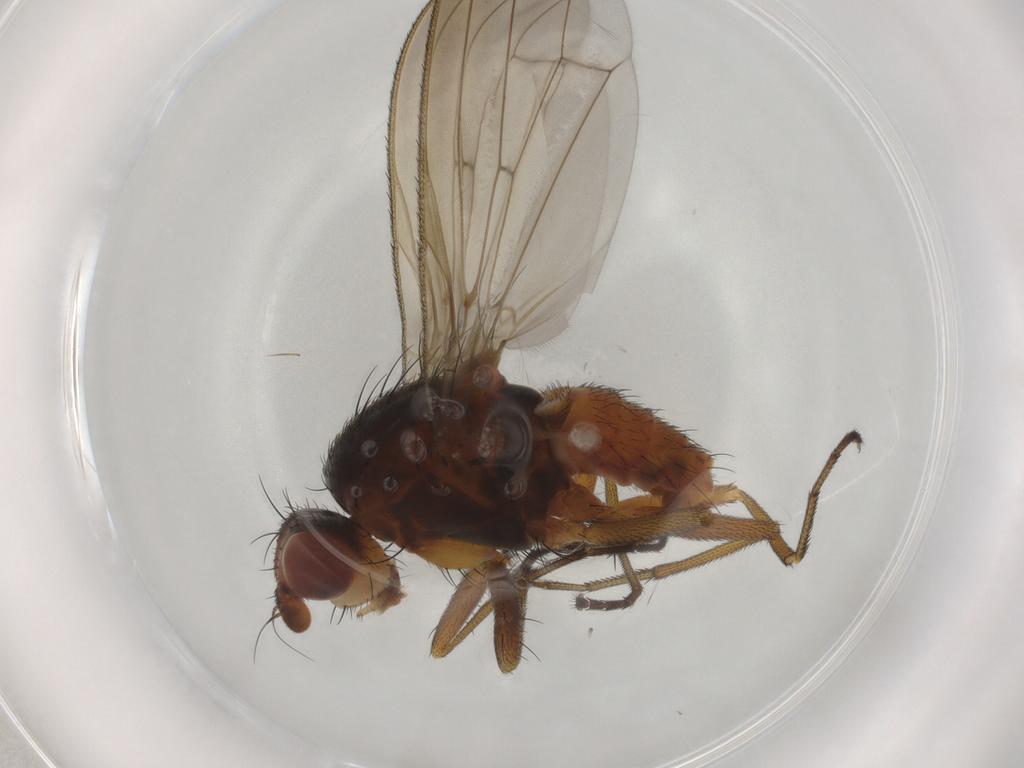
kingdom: Animalia
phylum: Arthropoda
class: Insecta
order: Diptera
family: Heleomyzidae
